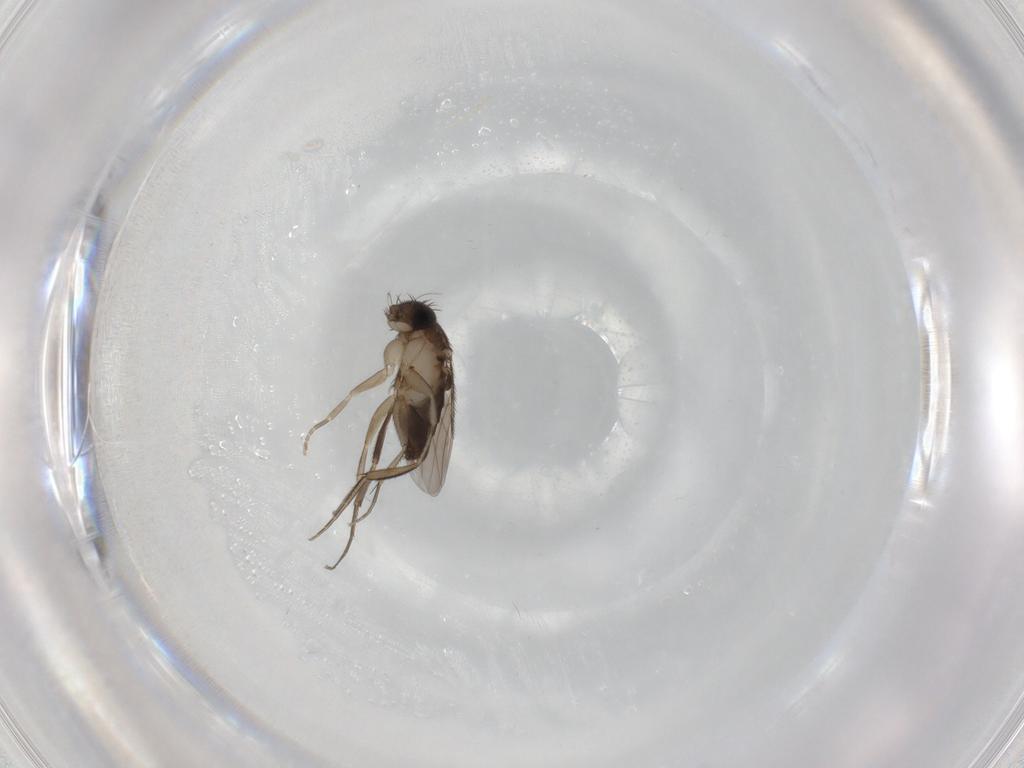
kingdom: Animalia
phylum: Arthropoda
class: Insecta
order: Diptera
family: Phoridae
